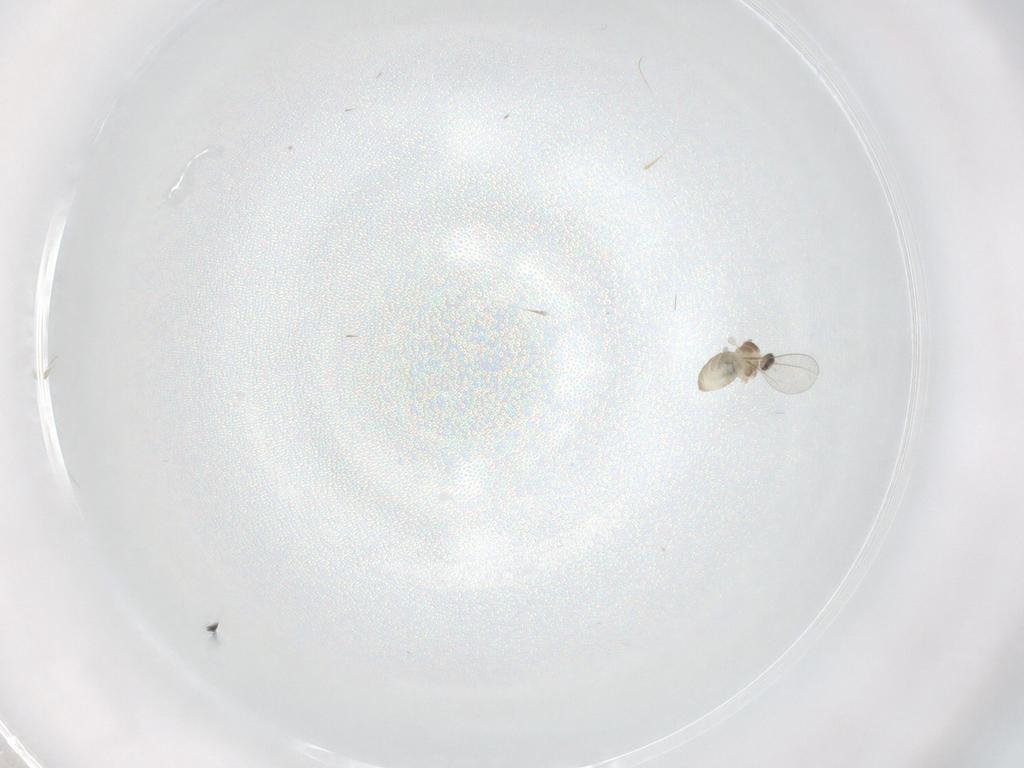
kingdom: Animalia
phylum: Arthropoda
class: Insecta
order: Diptera
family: Cecidomyiidae
